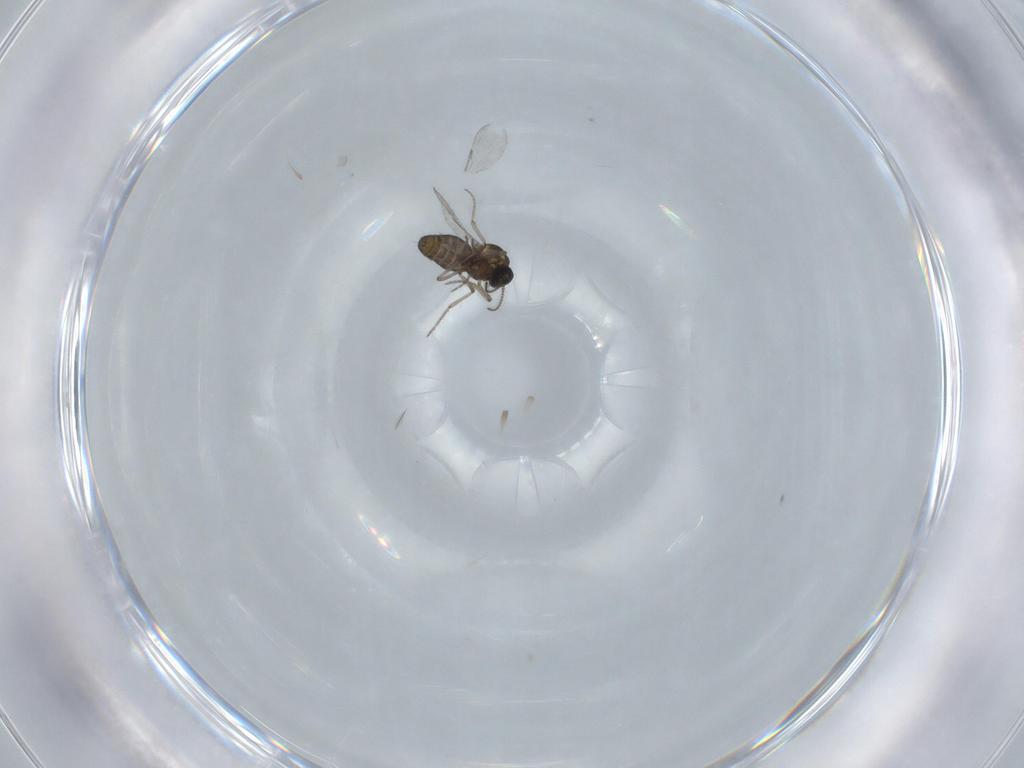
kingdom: Animalia
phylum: Arthropoda
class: Insecta
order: Diptera
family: Ceratopogonidae
